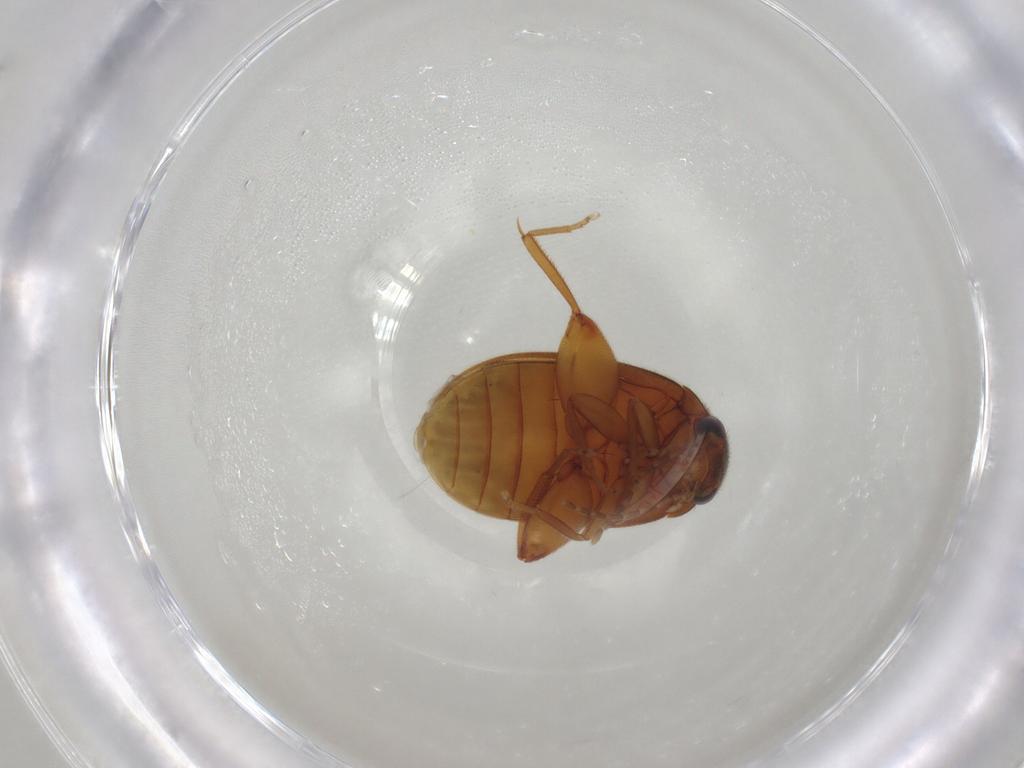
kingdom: Animalia
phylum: Arthropoda
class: Insecta
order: Coleoptera
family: Scirtidae
